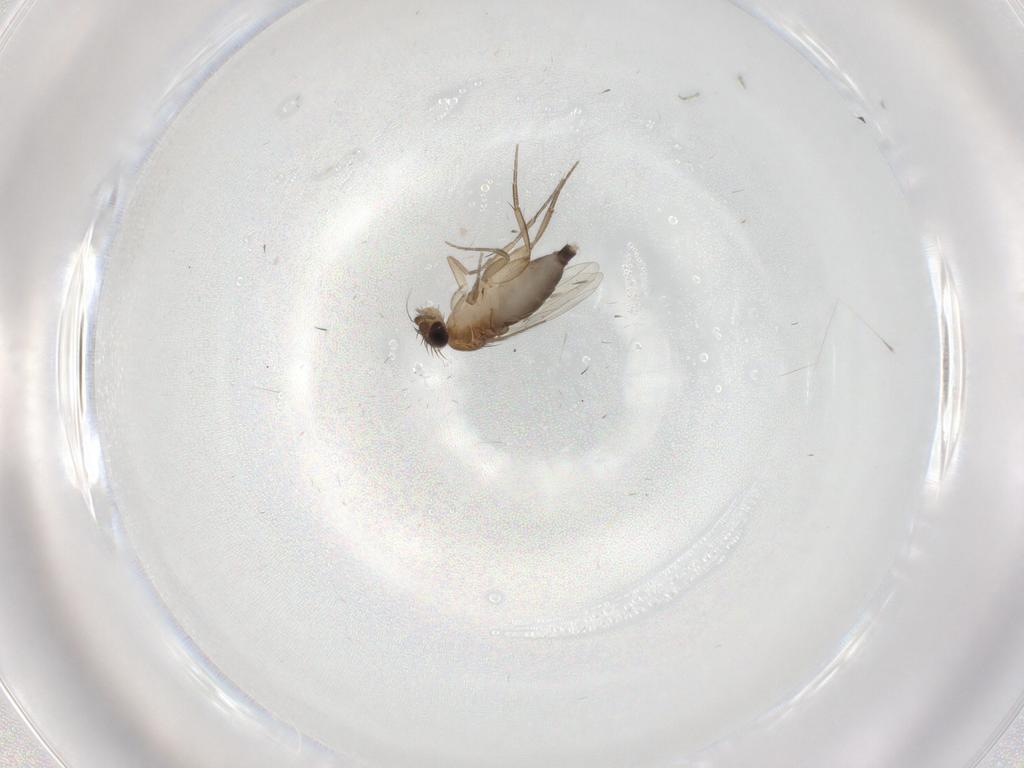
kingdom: Animalia
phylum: Arthropoda
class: Insecta
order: Diptera
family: Phoridae
